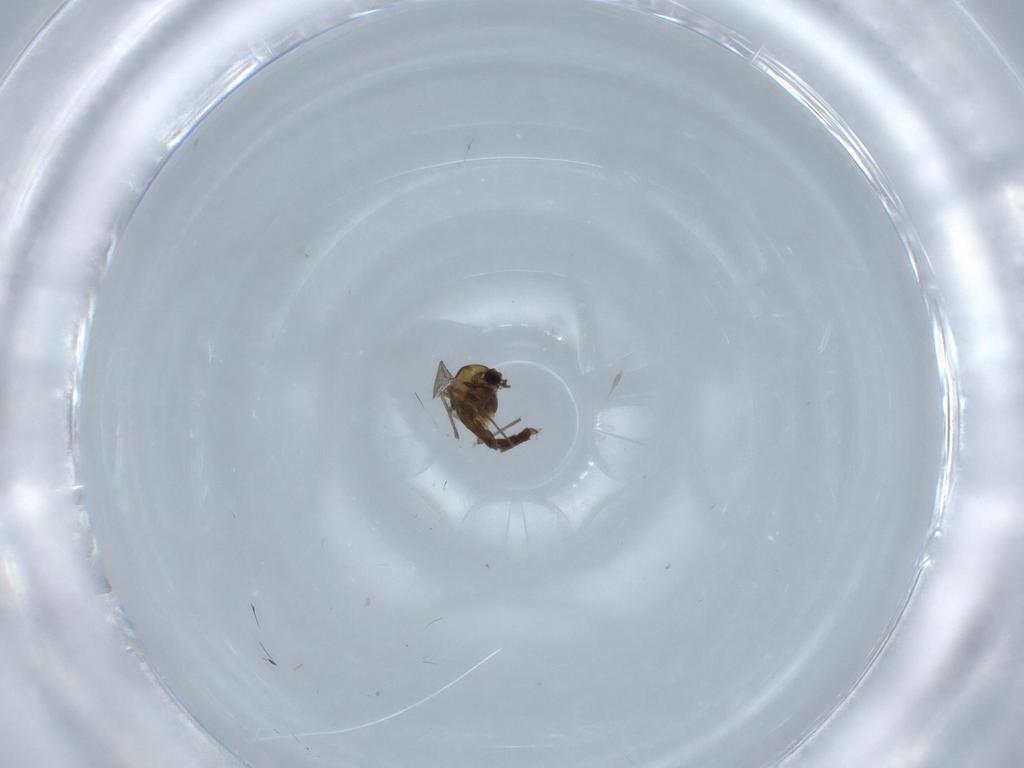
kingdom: Animalia
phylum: Arthropoda
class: Insecta
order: Diptera
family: Chironomidae
